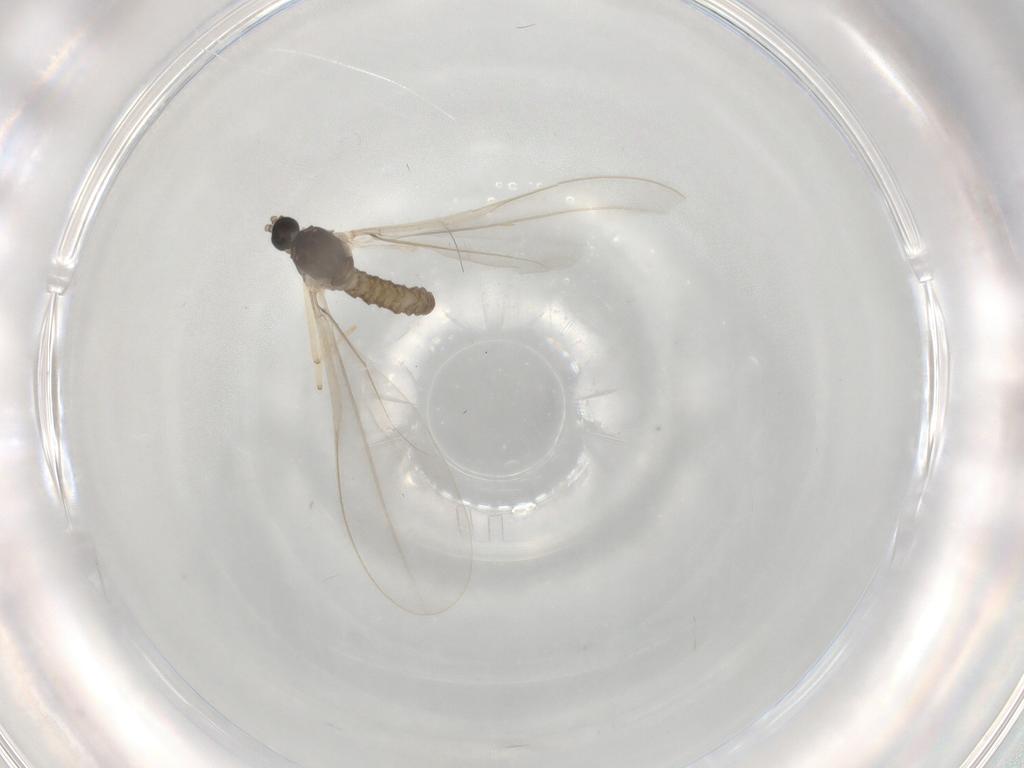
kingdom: Animalia
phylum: Arthropoda
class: Insecta
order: Diptera
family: Cecidomyiidae
